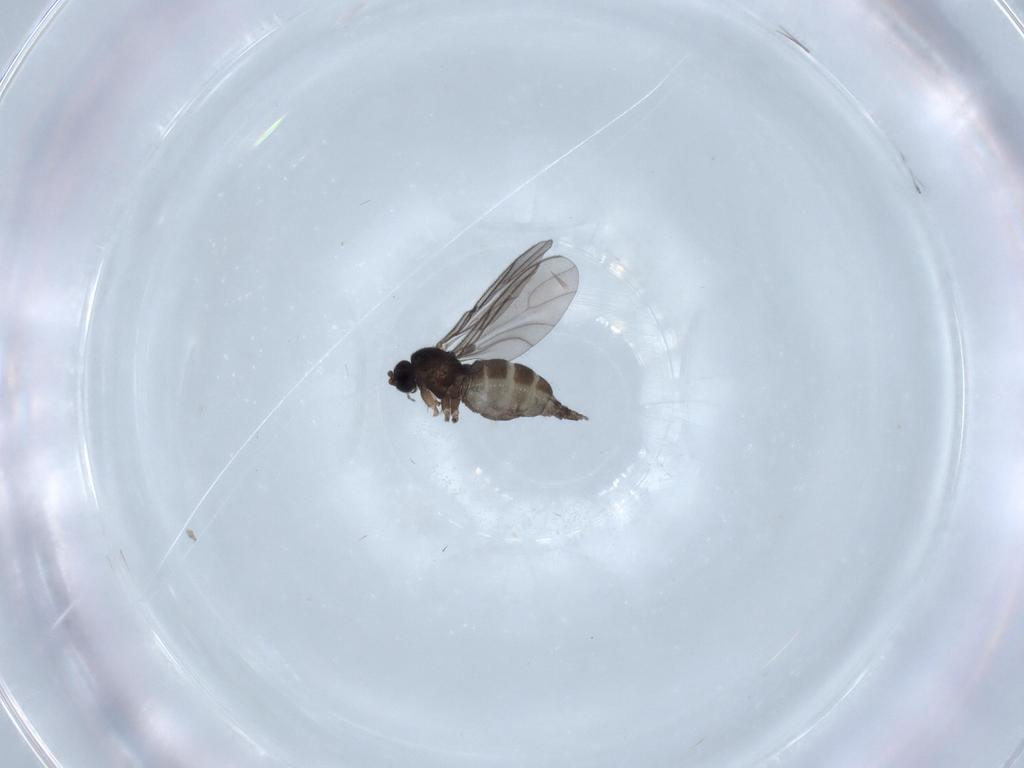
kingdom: Animalia
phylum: Arthropoda
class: Insecta
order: Diptera
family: Sciaridae
